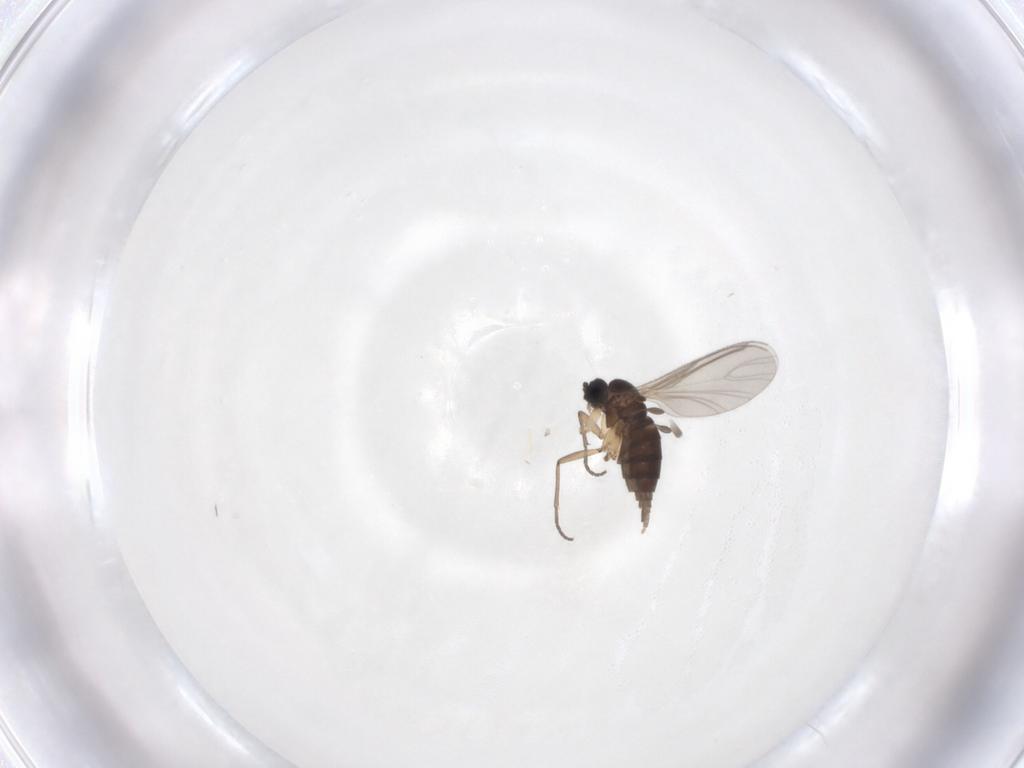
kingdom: Animalia
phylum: Arthropoda
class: Insecta
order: Diptera
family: Sciaridae
